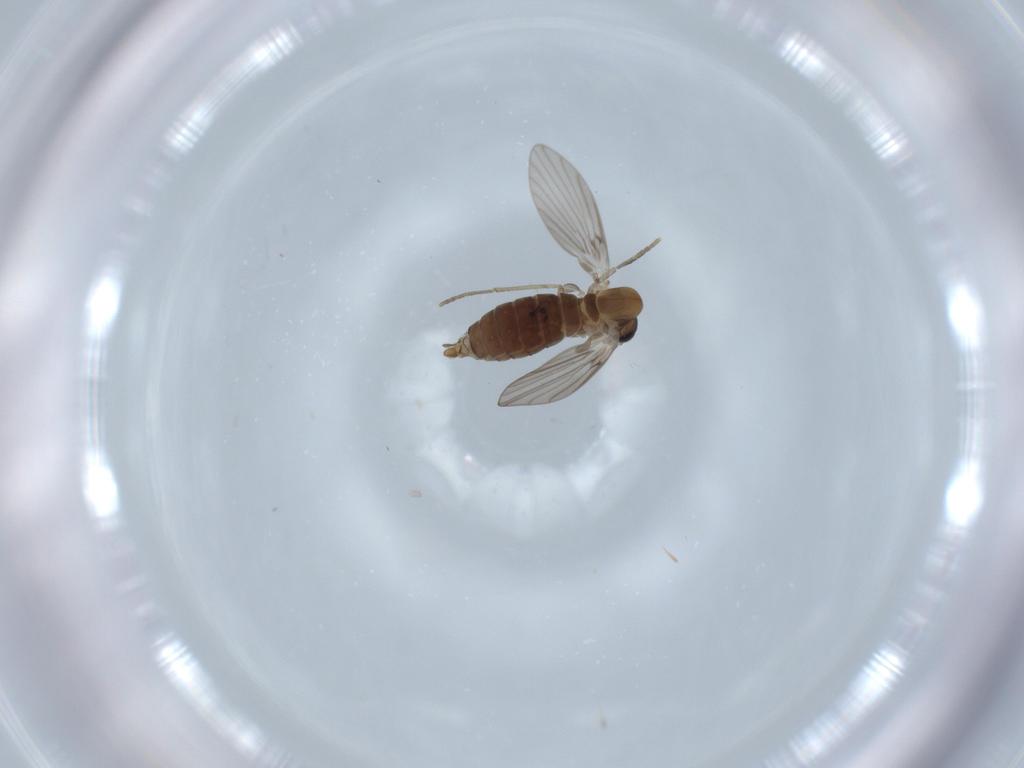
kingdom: Animalia
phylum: Arthropoda
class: Insecta
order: Diptera
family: Psychodidae
